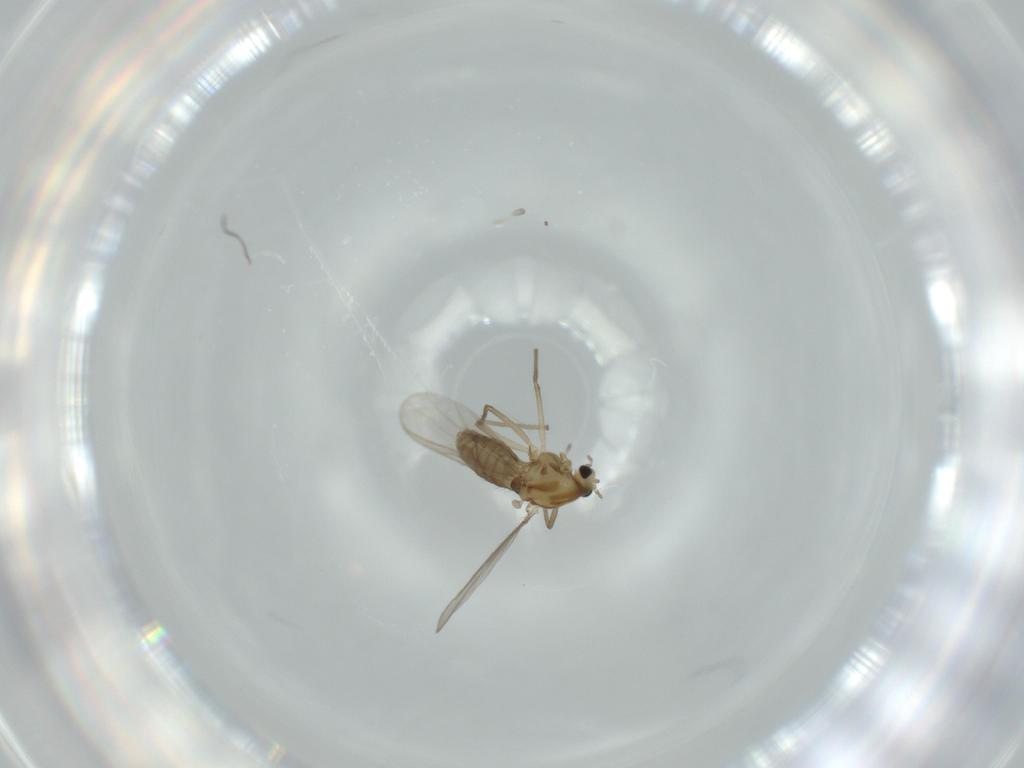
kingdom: Animalia
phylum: Arthropoda
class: Insecta
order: Diptera
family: Chironomidae
